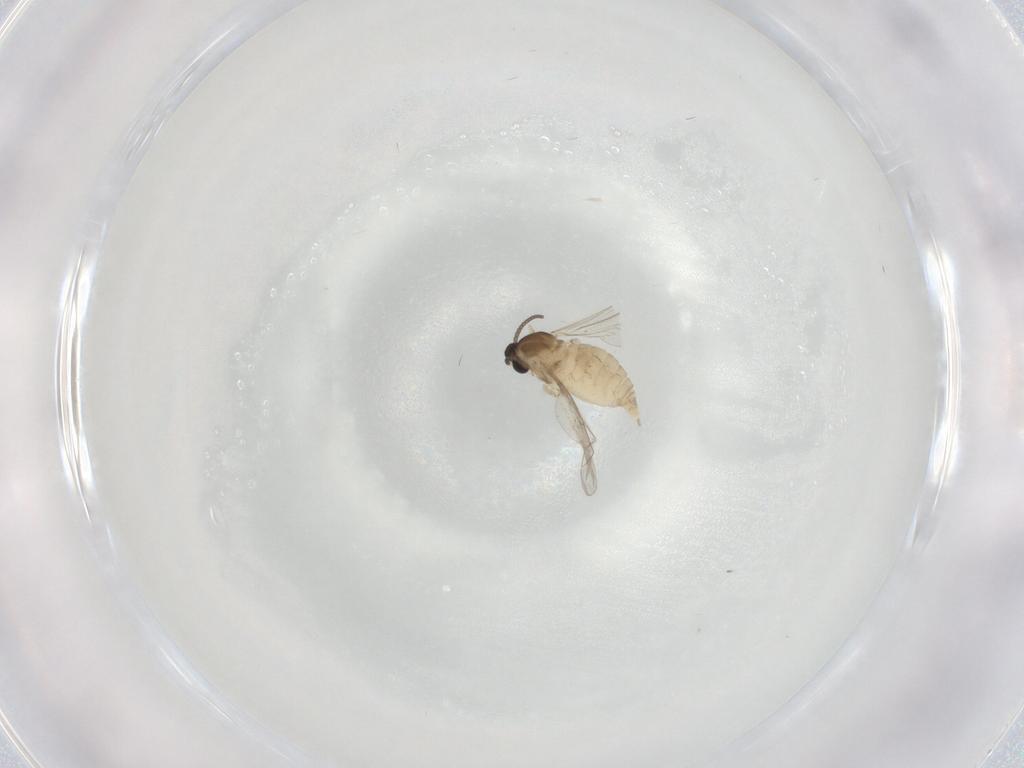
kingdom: Animalia
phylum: Arthropoda
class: Insecta
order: Diptera
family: Cecidomyiidae
